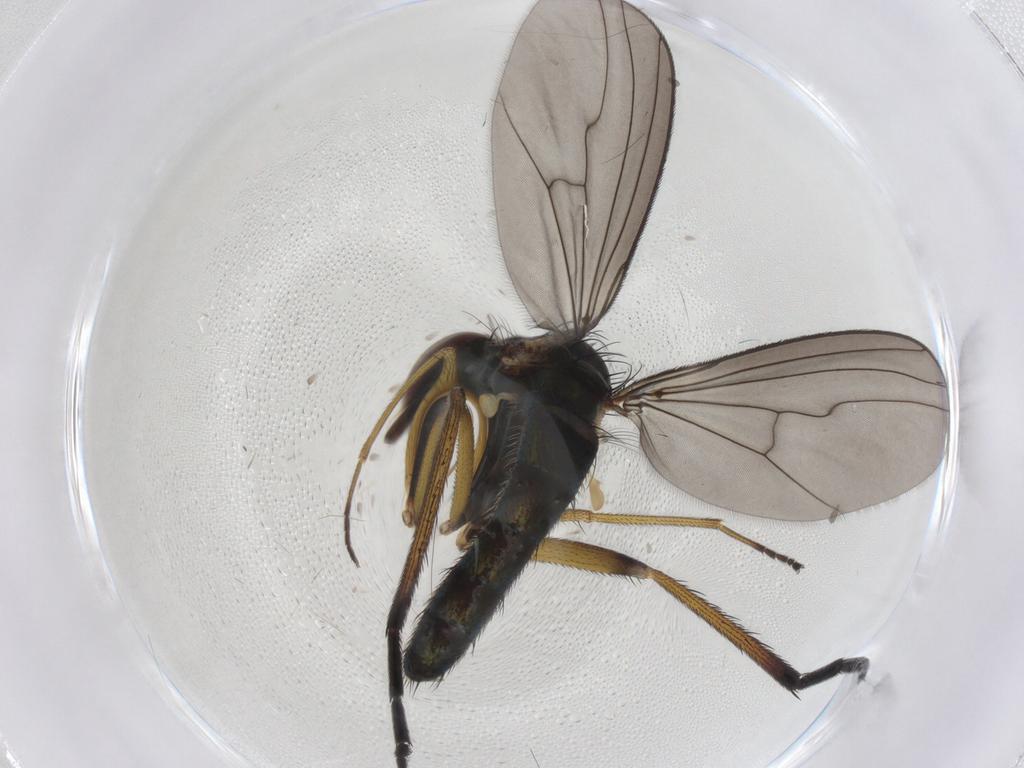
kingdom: Animalia
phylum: Arthropoda
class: Insecta
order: Diptera
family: Dolichopodidae
